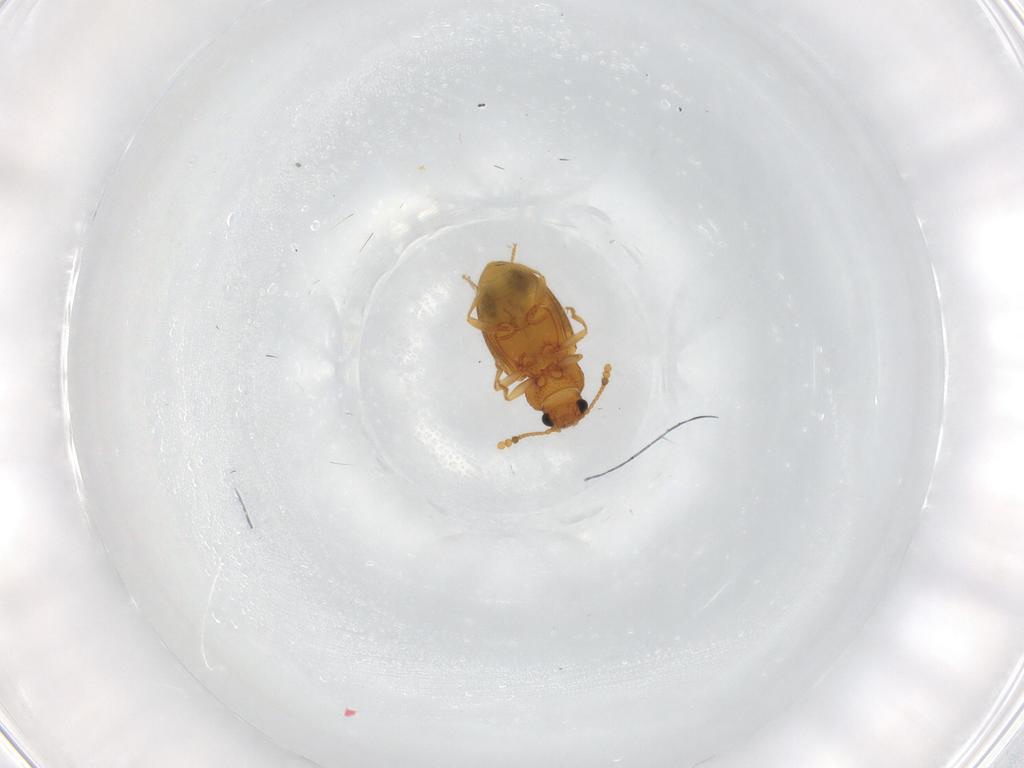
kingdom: Animalia
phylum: Arthropoda
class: Insecta
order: Coleoptera
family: Erotylidae
